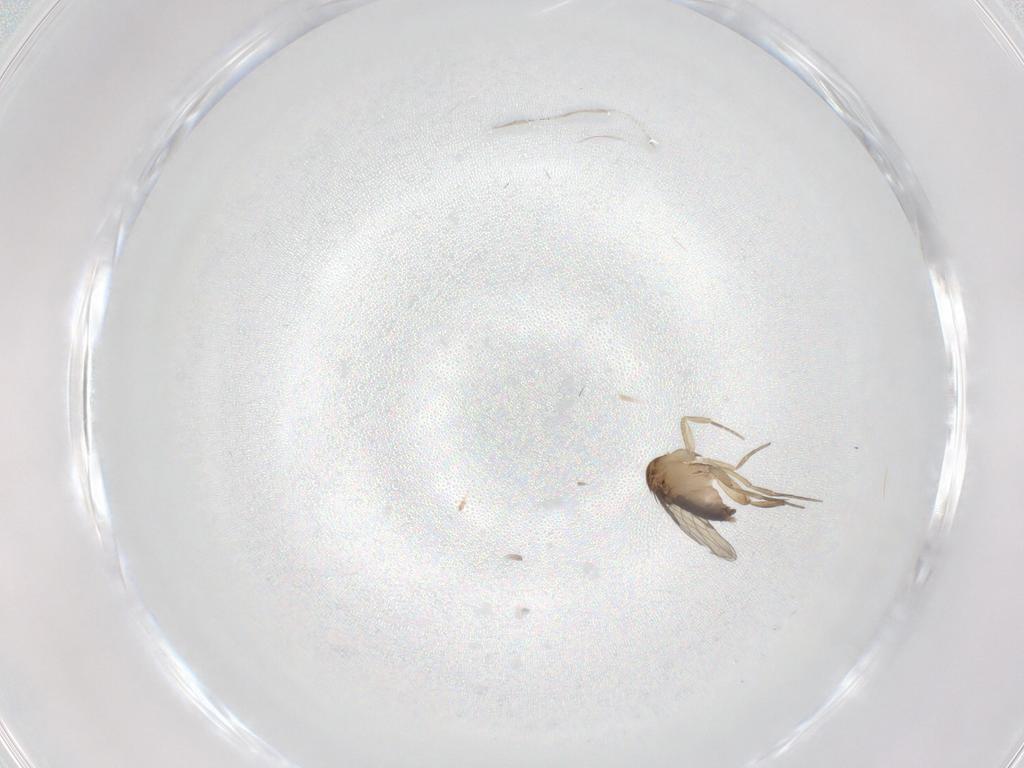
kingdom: Animalia
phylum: Arthropoda
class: Insecta
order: Diptera
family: Phoridae
